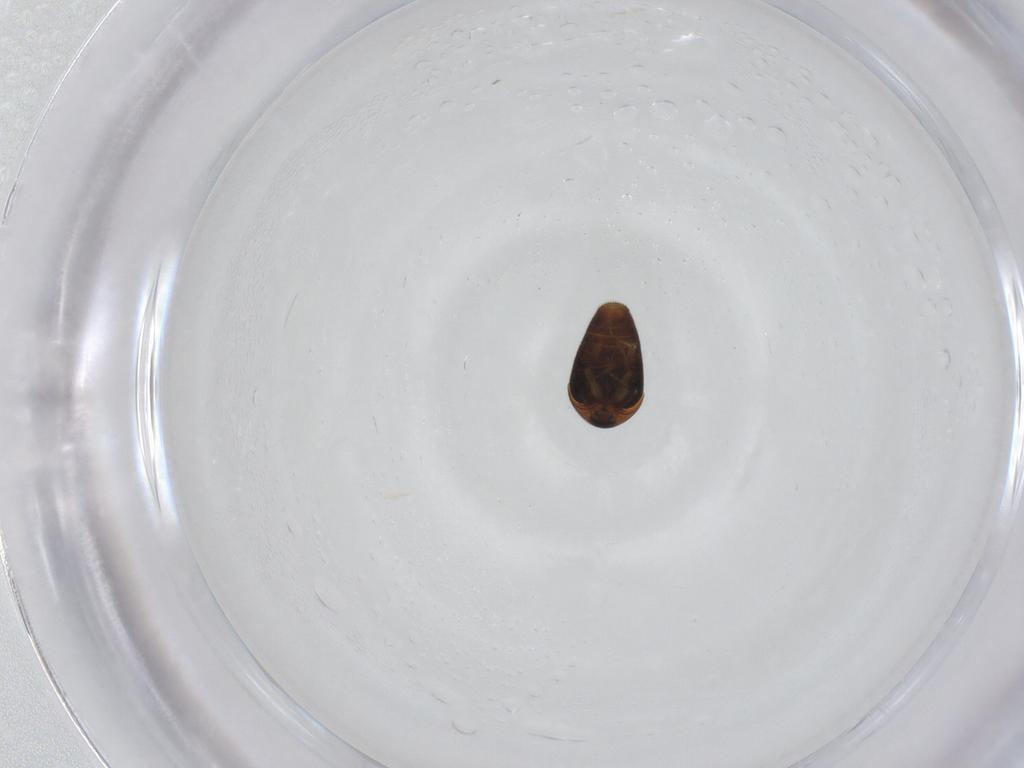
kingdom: Animalia
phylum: Arthropoda
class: Insecta
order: Coleoptera
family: Corylophidae
